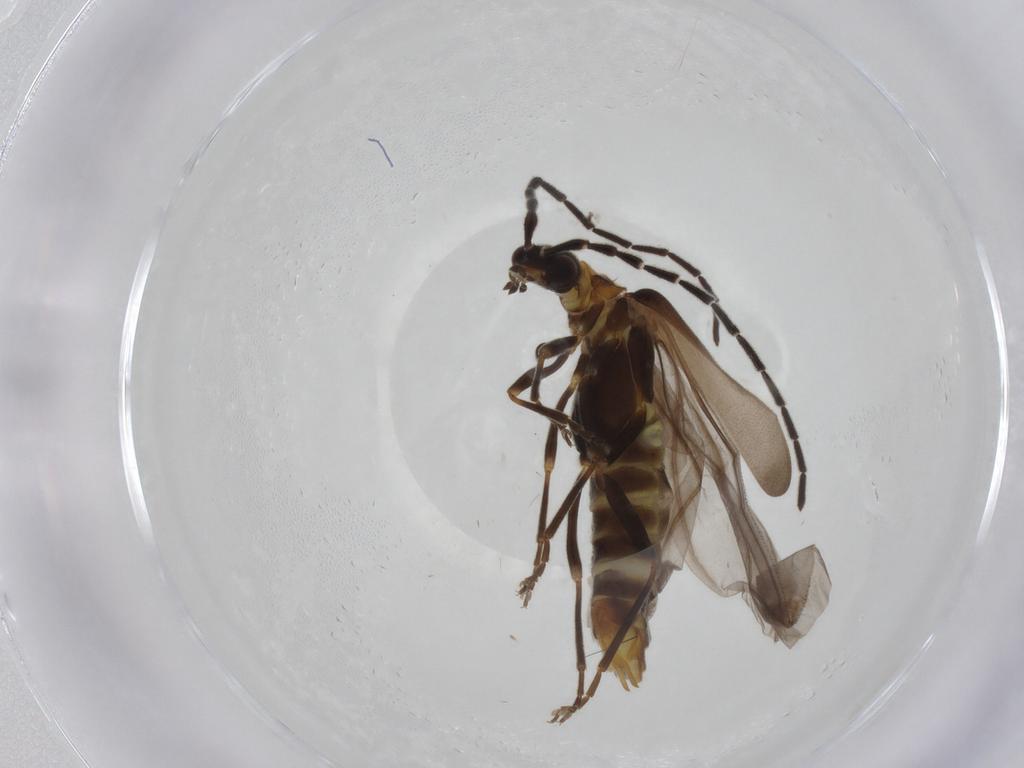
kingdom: Animalia
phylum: Arthropoda
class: Insecta
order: Coleoptera
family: Cantharidae
